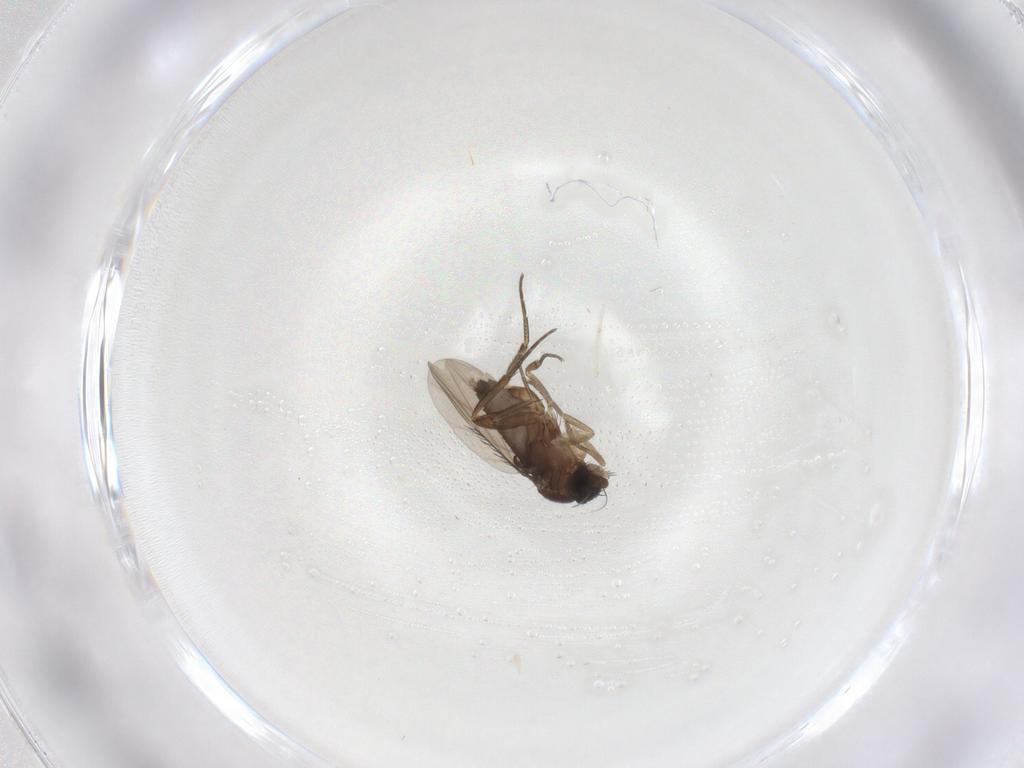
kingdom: Animalia
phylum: Arthropoda
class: Insecta
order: Diptera
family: Phoridae
